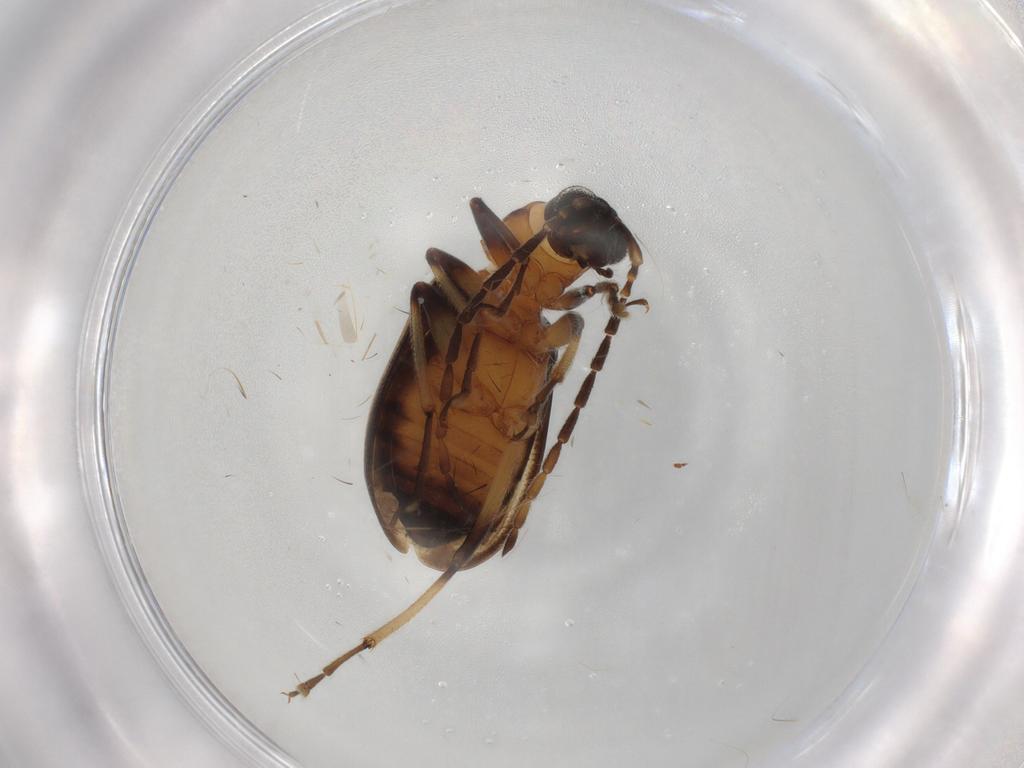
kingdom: Animalia
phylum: Arthropoda
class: Insecta
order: Coleoptera
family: Chrysomelidae
